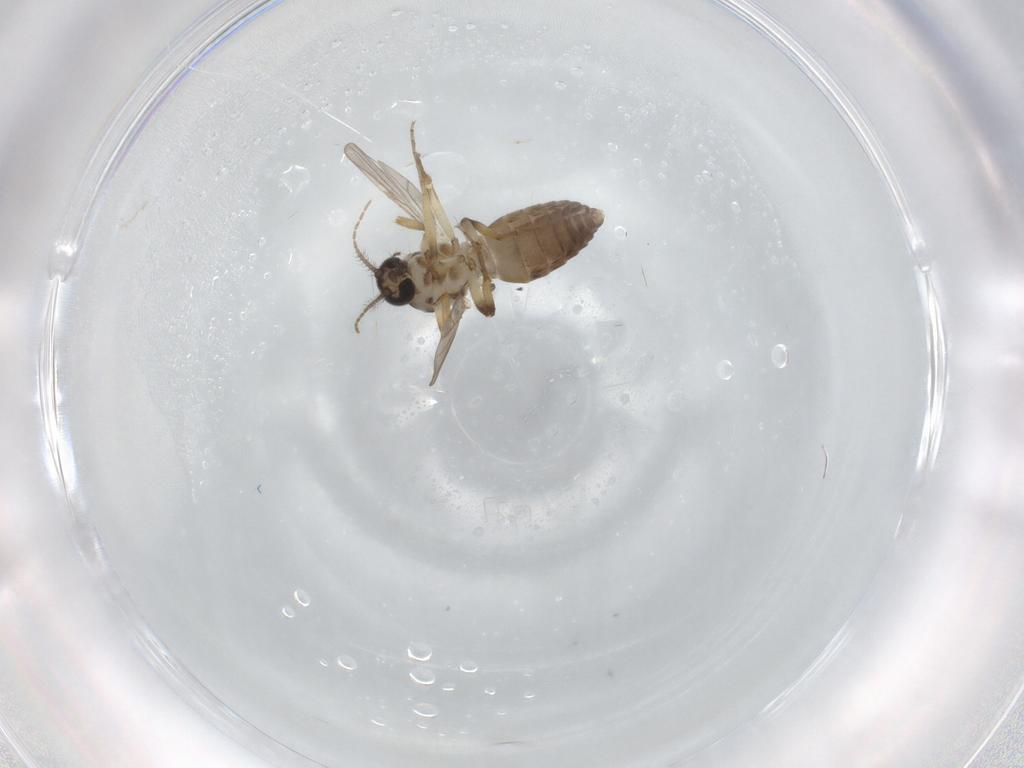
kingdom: Animalia
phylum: Arthropoda
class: Insecta
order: Diptera
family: Ceratopogonidae
